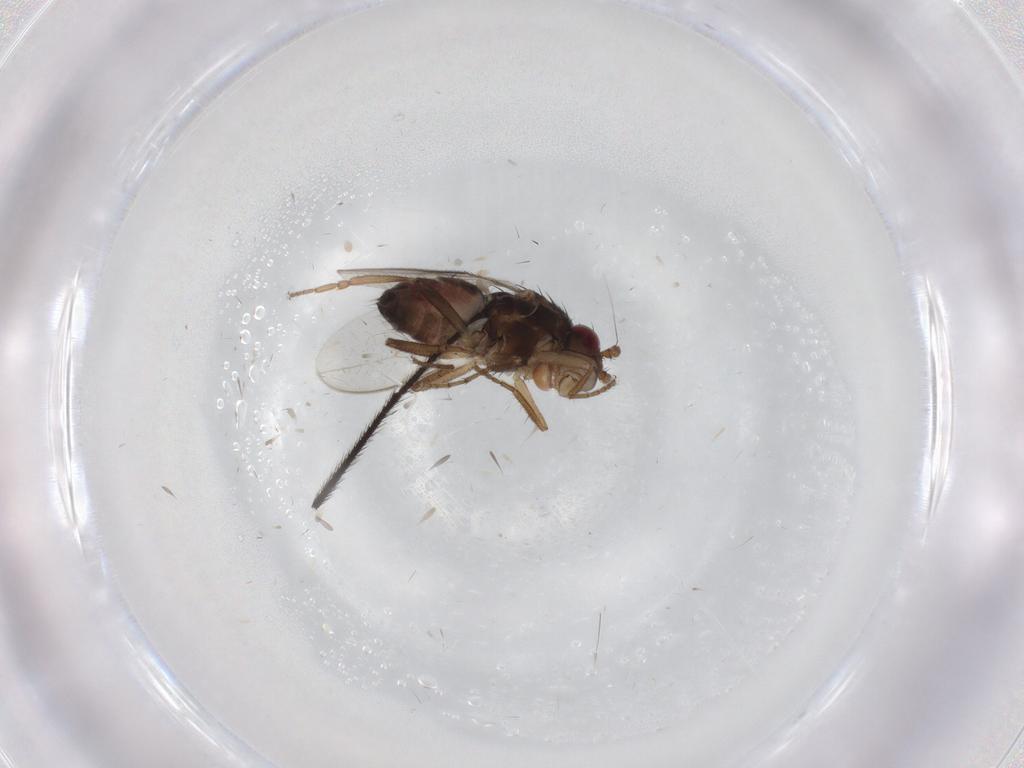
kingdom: Animalia
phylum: Arthropoda
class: Insecta
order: Diptera
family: Sphaeroceridae
